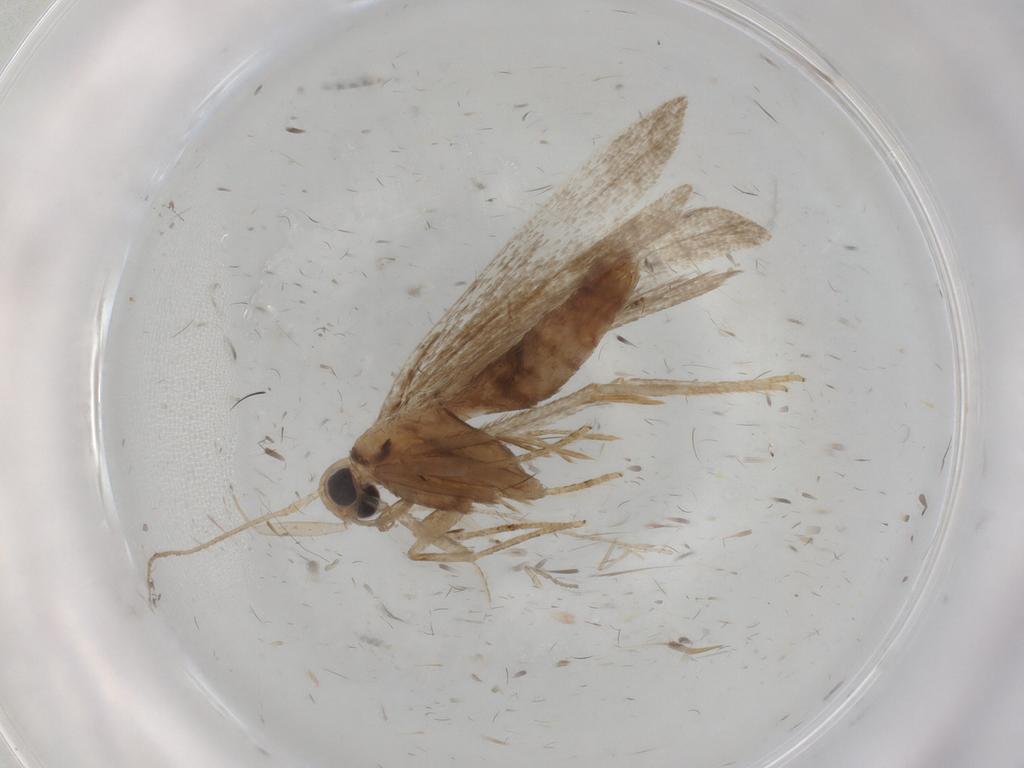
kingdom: Animalia
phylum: Arthropoda
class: Insecta
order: Lepidoptera
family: Gelechiidae
